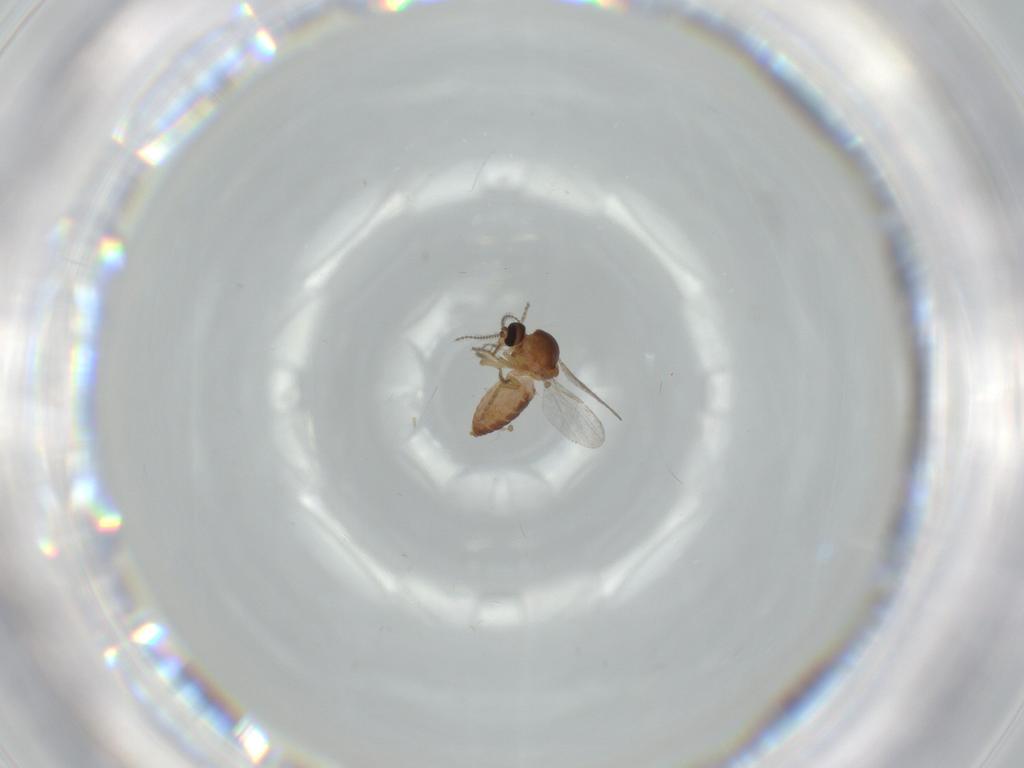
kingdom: Animalia
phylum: Arthropoda
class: Insecta
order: Diptera
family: Ceratopogonidae
